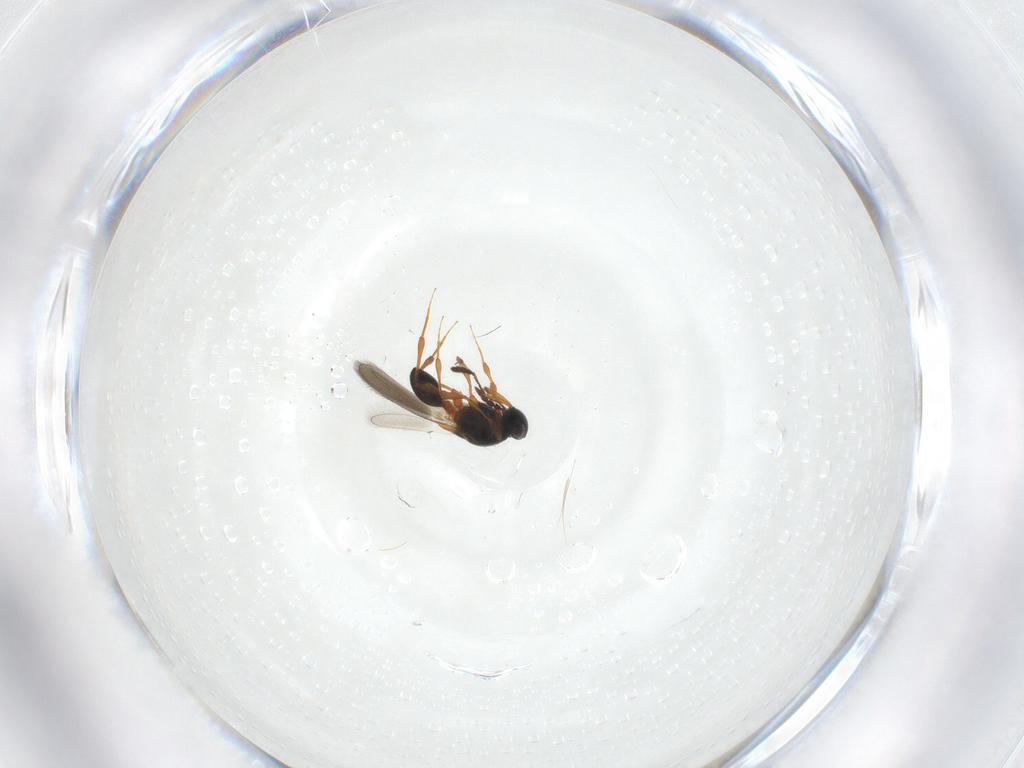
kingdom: Animalia
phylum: Arthropoda
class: Insecta
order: Hymenoptera
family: Platygastridae
